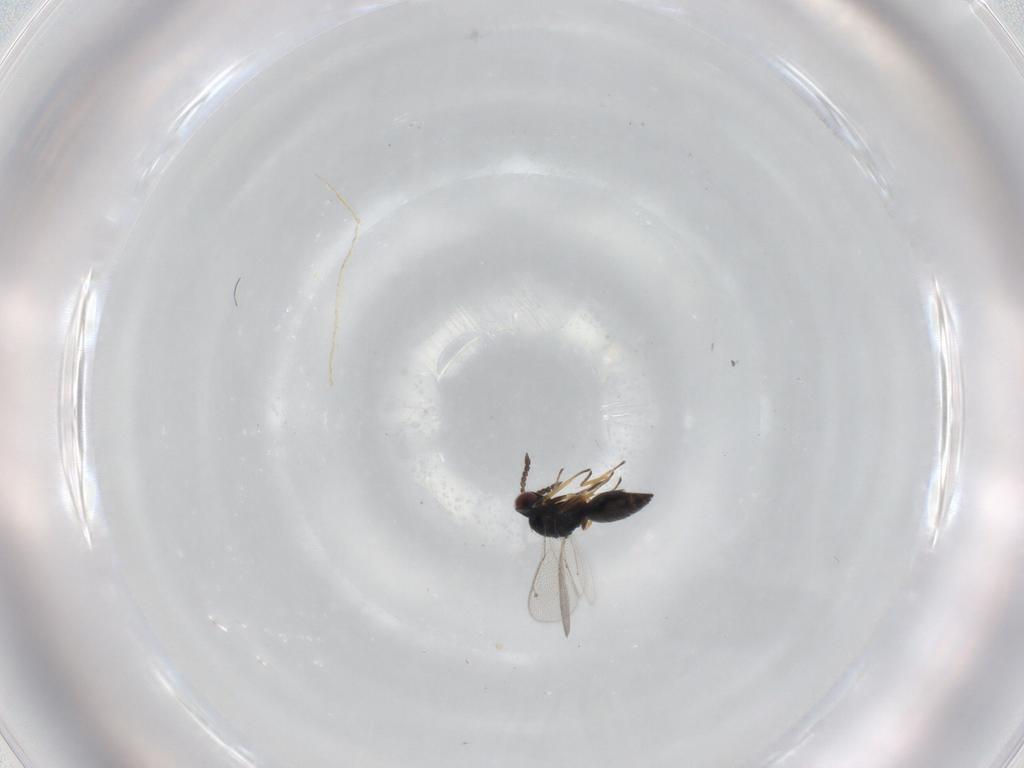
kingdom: Animalia
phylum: Arthropoda
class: Insecta
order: Hymenoptera
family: Eulophidae
